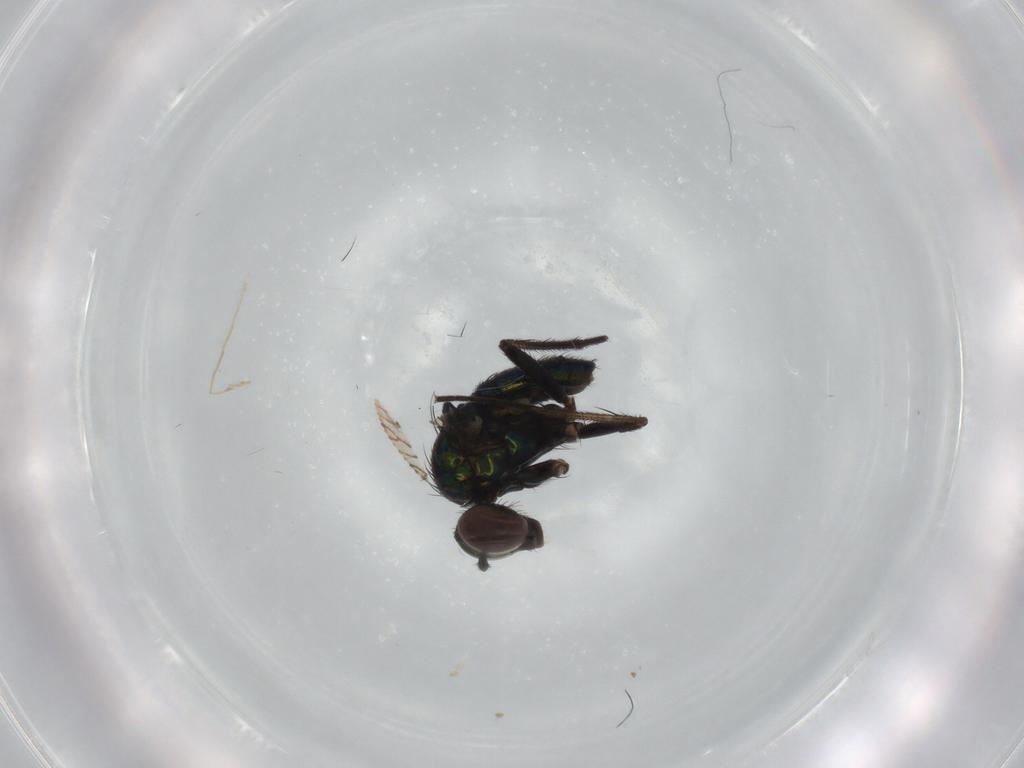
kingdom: Animalia
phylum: Arthropoda
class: Insecta
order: Diptera
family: Dolichopodidae
